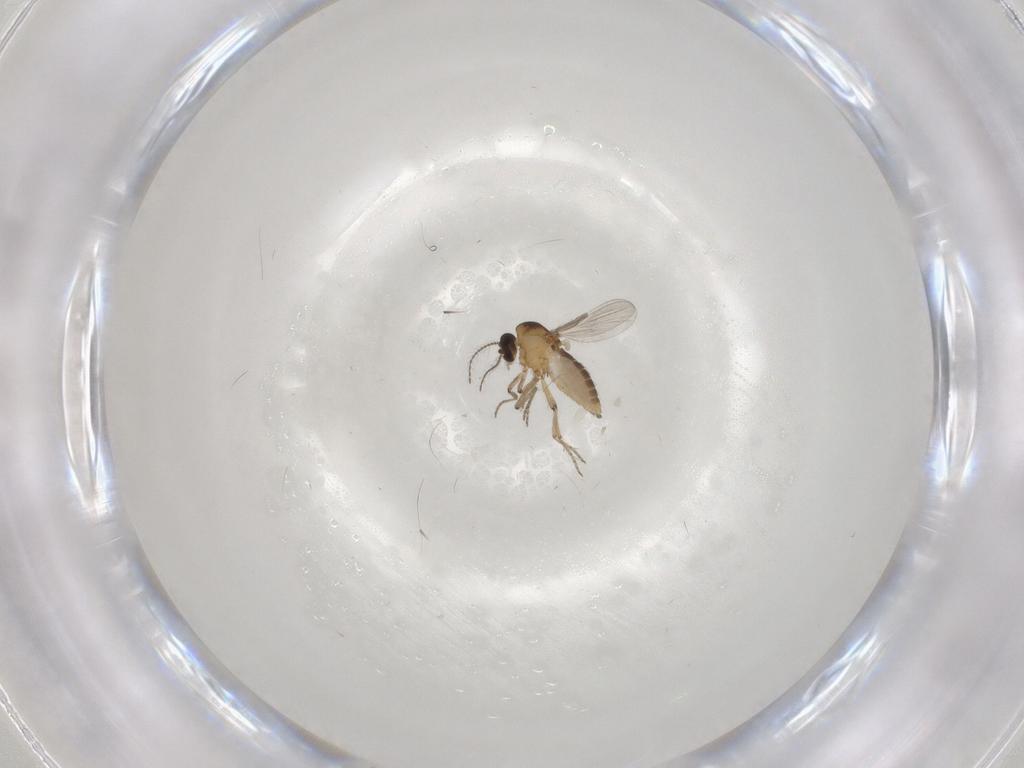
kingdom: Animalia
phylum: Arthropoda
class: Insecta
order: Diptera
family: Ceratopogonidae
